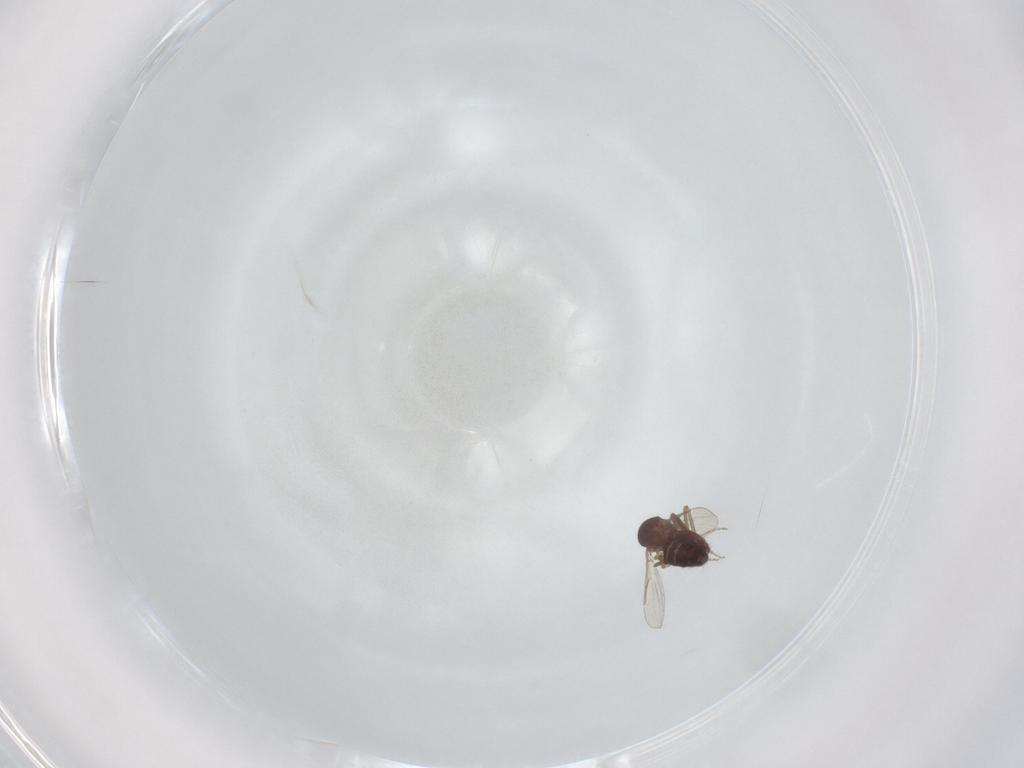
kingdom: Animalia
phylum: Arthropoda
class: Insecta
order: Diptera
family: Ceratopogonidae
